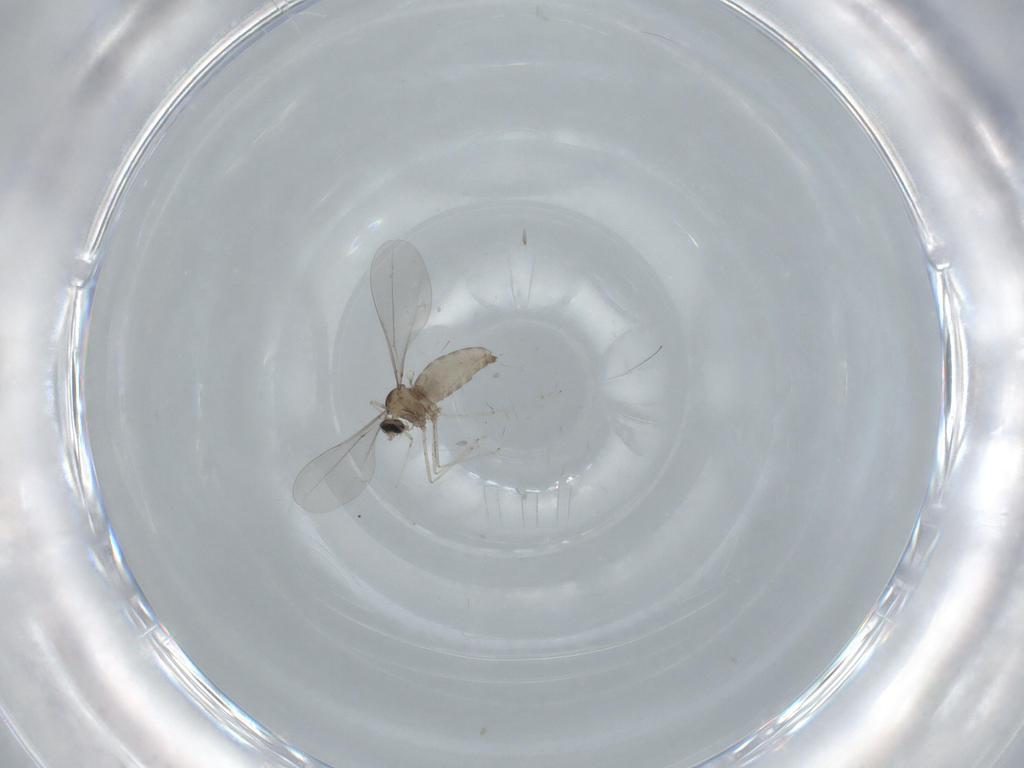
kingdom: Animalia
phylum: Arthropoda
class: Insecta
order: Diptera
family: Cecidomyiidae
